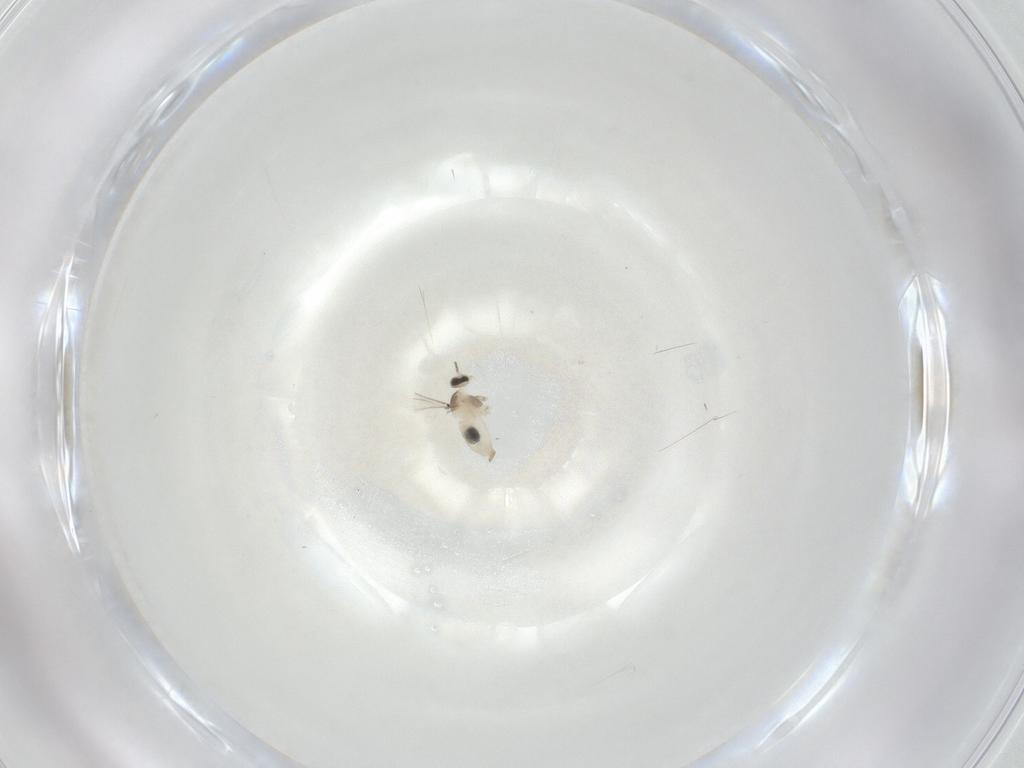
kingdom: Animalia
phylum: Arthropoda
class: Insecta
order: Diptera
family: Cecidomyiidae
